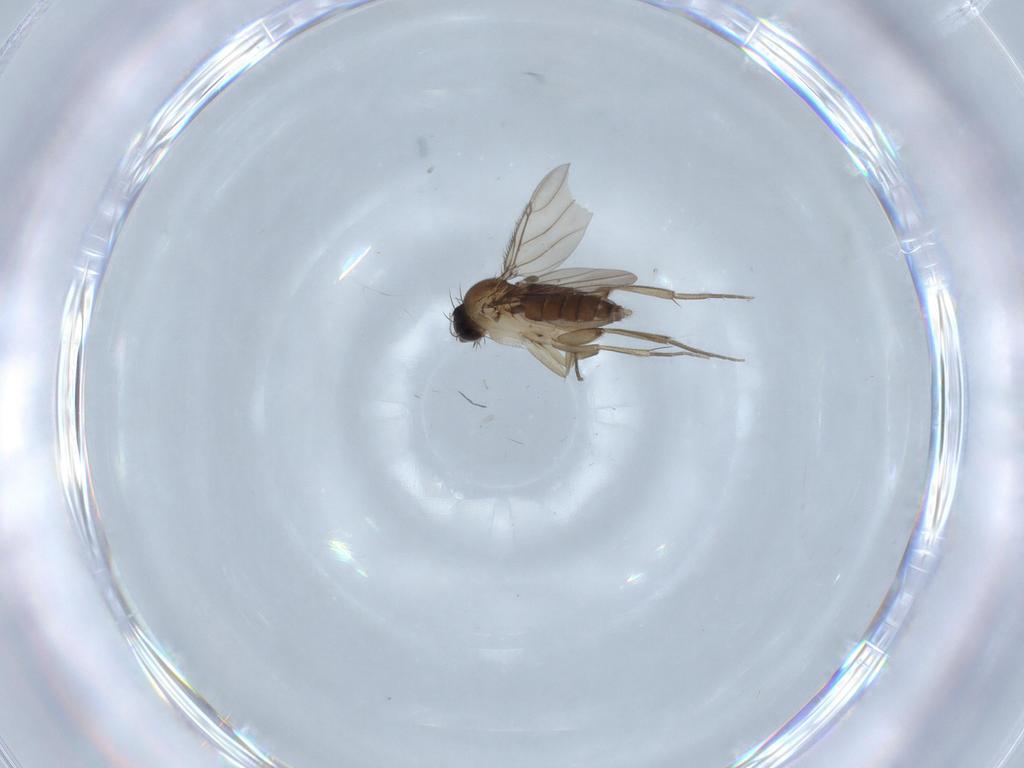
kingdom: Animalia
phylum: Arthropoda
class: Insecta
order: Diptera
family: Phoridae
